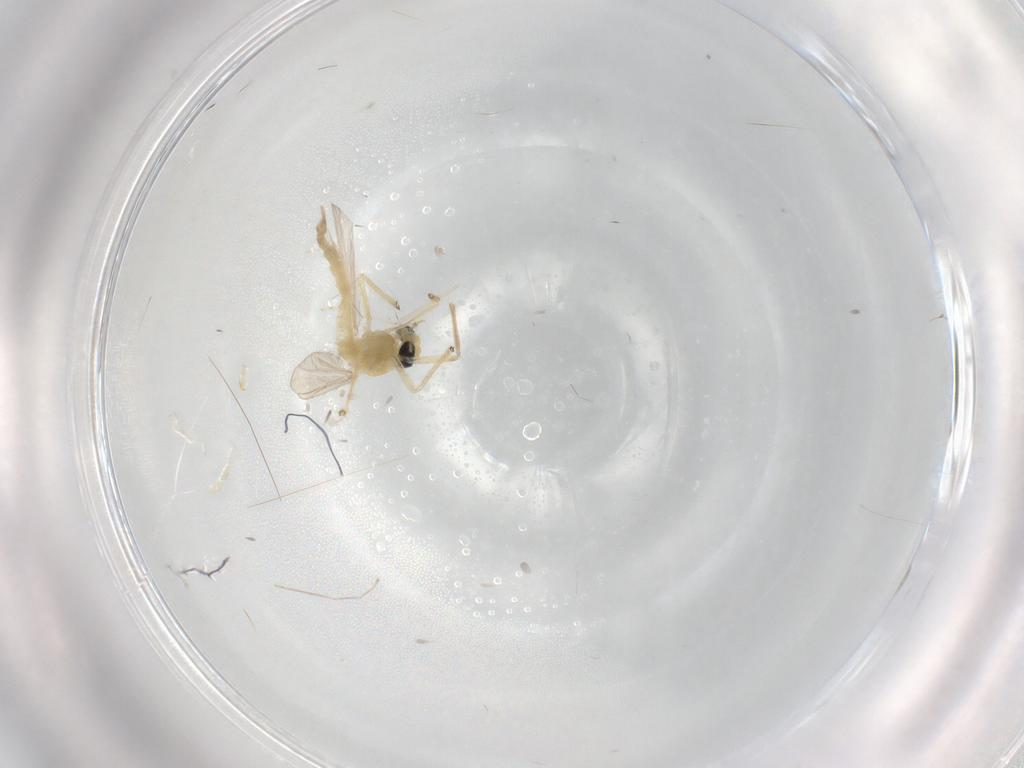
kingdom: Animalia
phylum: Arthropoda
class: Insecta
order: Diptera
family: Chironomidae
